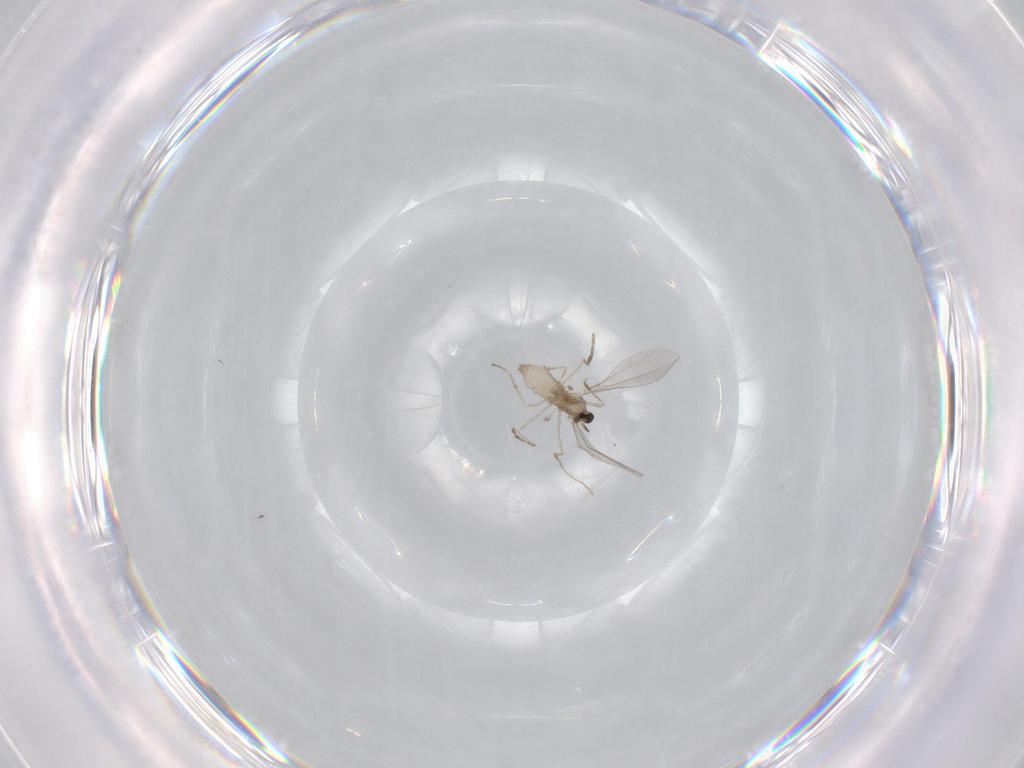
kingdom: Animalia
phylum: Arthropoda
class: Insecta
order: Diptera
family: Cecidomyiidae
